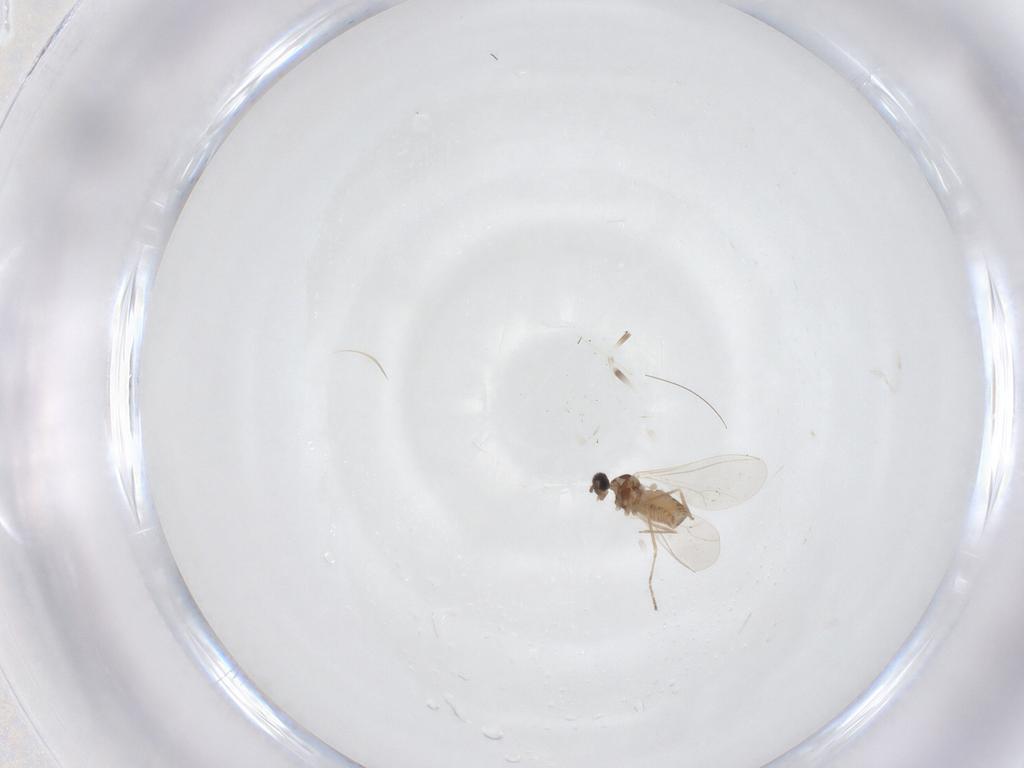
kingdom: Animalia
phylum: Arthropoda
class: Insecta
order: Diptera
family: Cecidomyiidae
